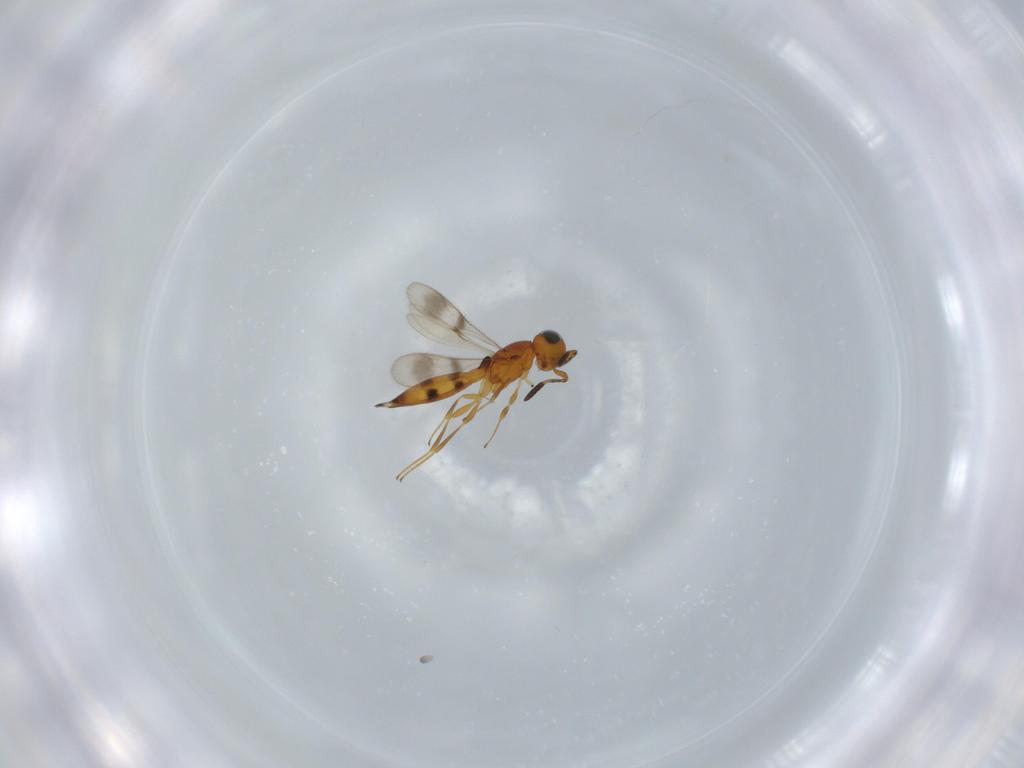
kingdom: Animalia
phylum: Arthropoda
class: Insecta
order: Hymenoptera
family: Scelionidae
